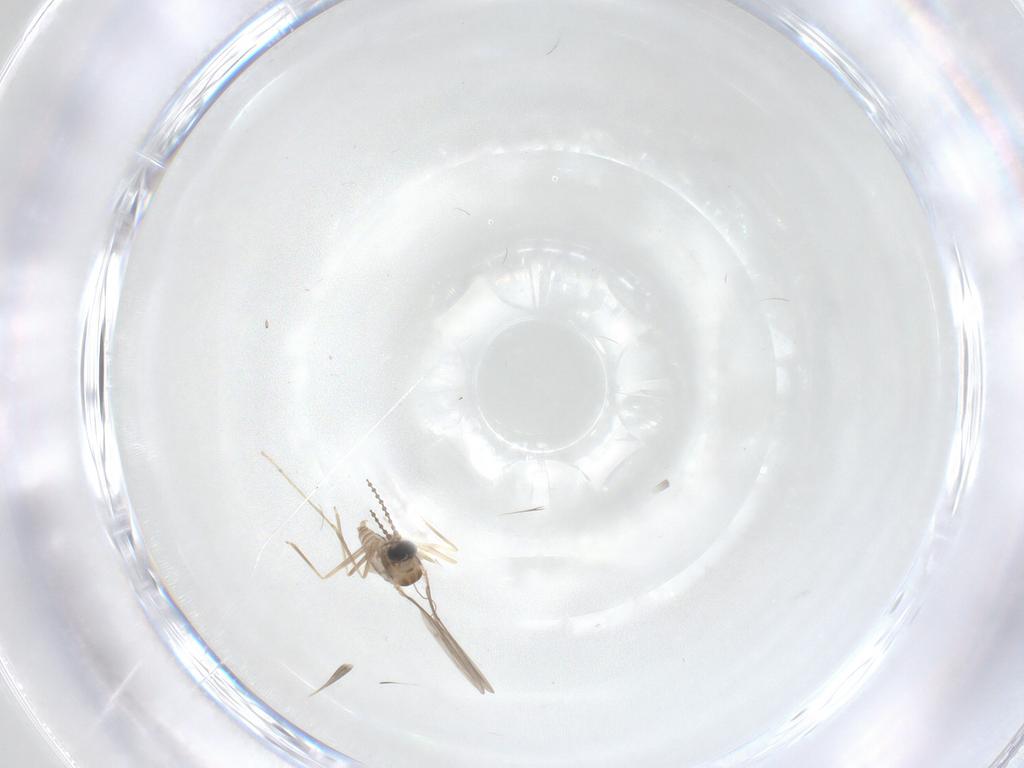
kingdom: Animalia
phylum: Arthropoda
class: Insecta
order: Diptera
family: Cecidomyiidae
